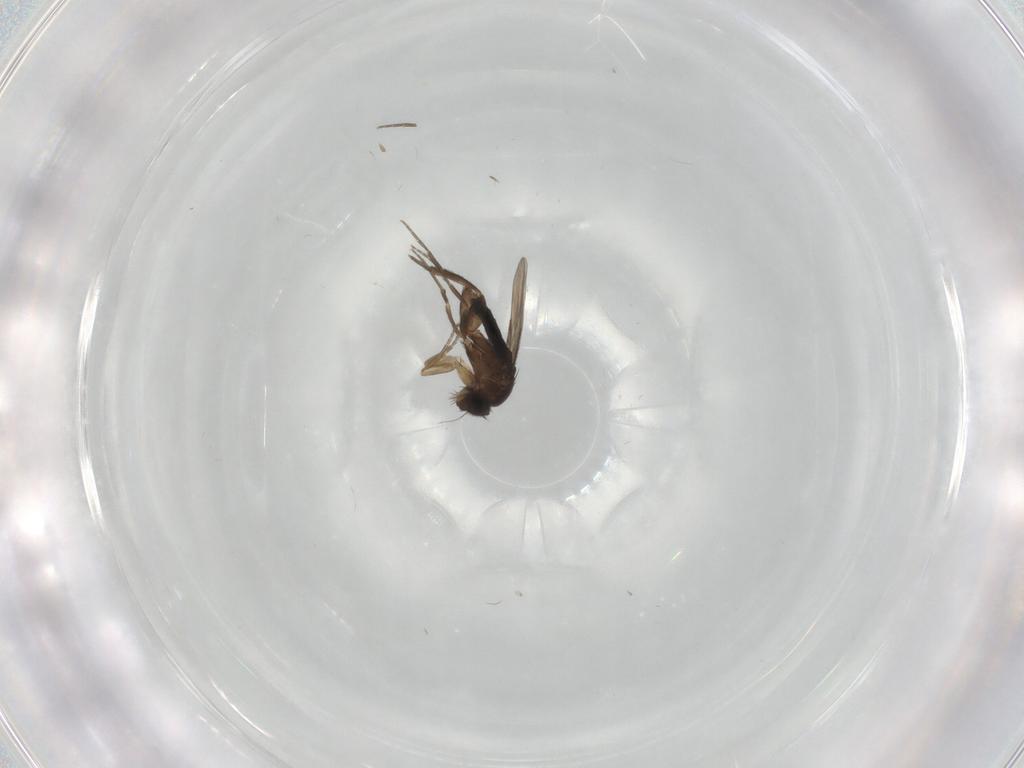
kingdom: Animalia
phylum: Arthropoda
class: Insecta
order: Diptera
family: Phoridae
